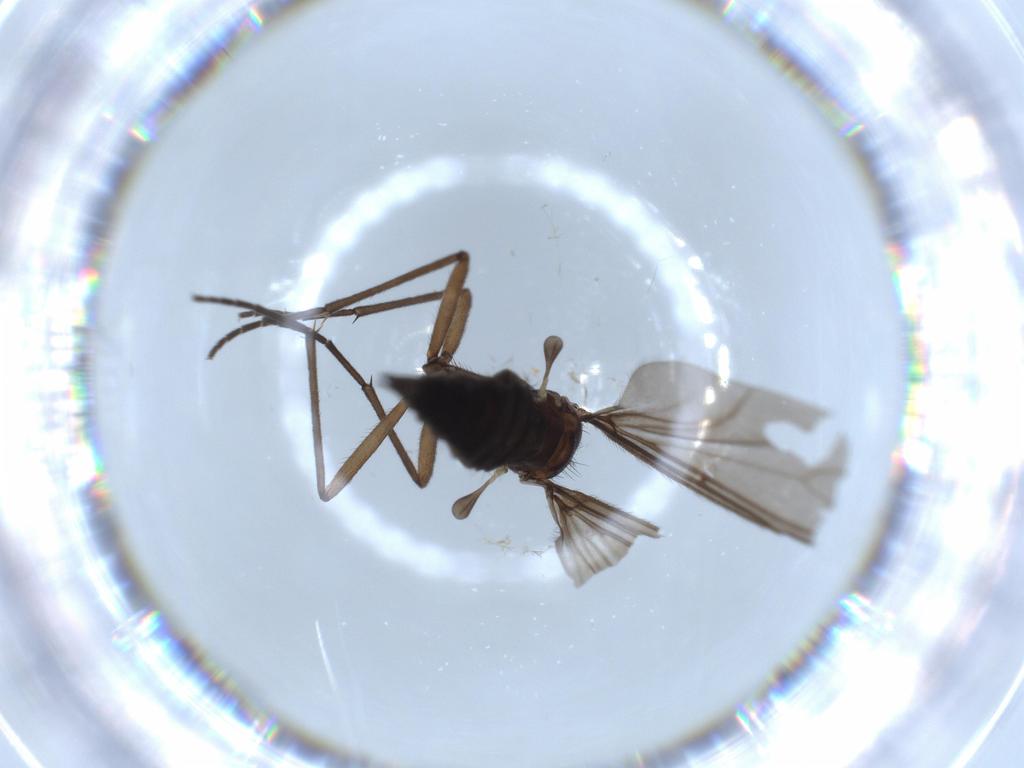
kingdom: Animalia
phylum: Arthropoda
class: Insecta
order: Diptera
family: Sciaridae
